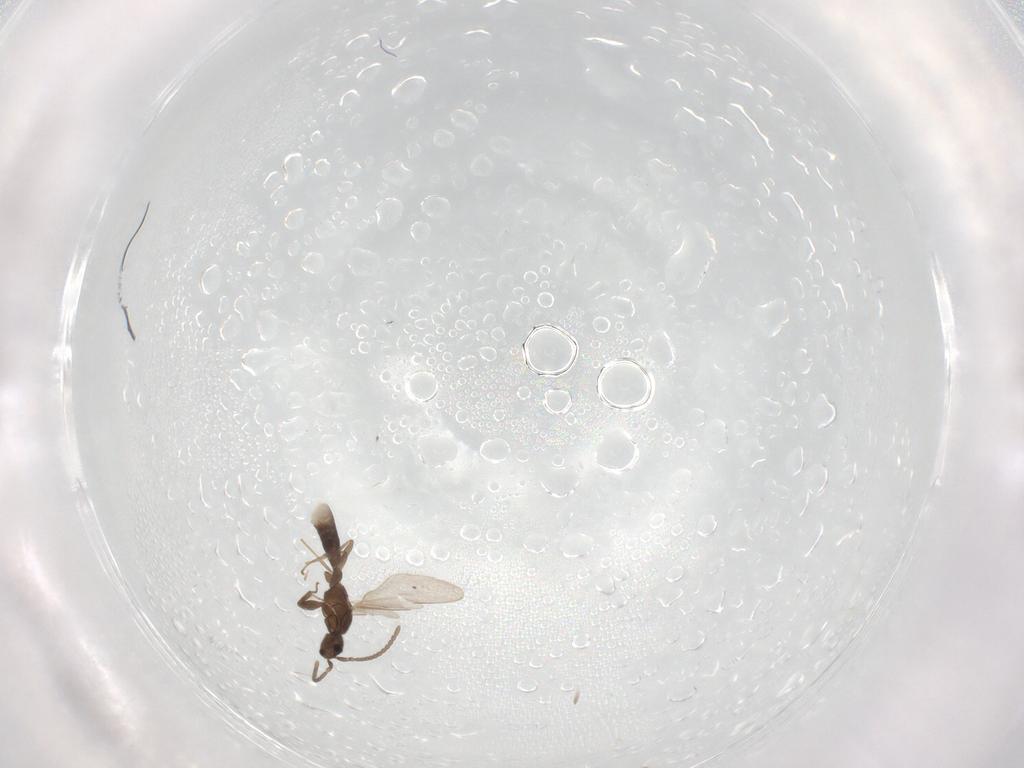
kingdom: Animalia
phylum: Arthropoda
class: Insecta
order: Hymenoptera
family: Formicidae
